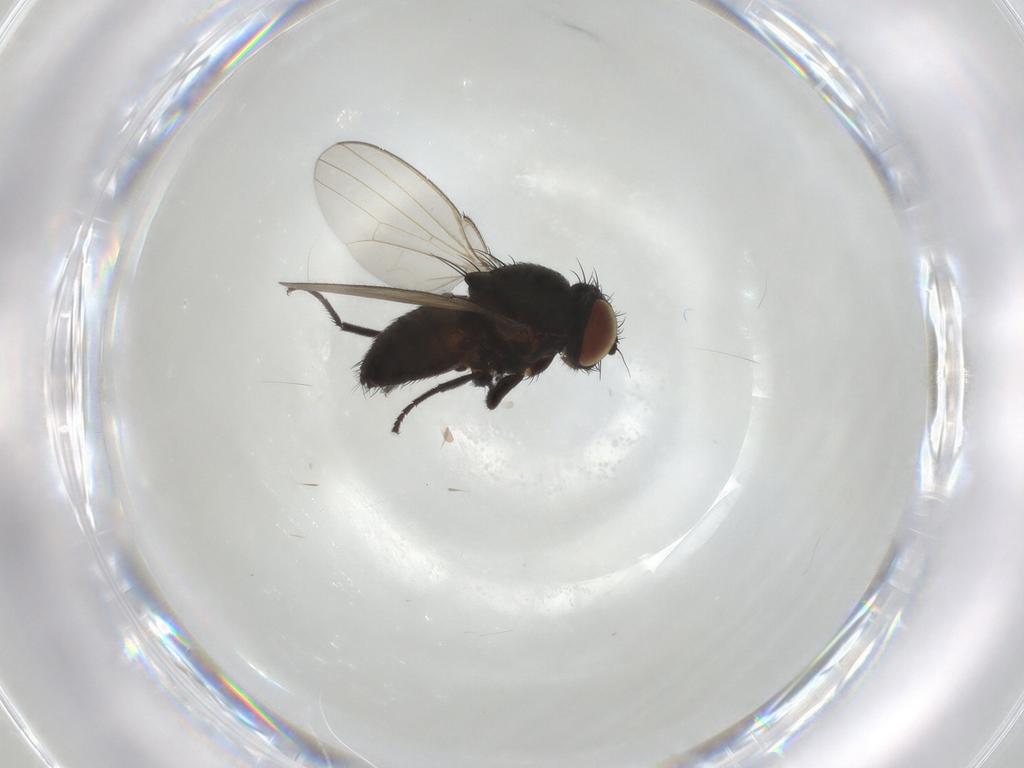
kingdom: Animalia
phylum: Arthropoda
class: Insecta
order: Diptera
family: Milichiidae
